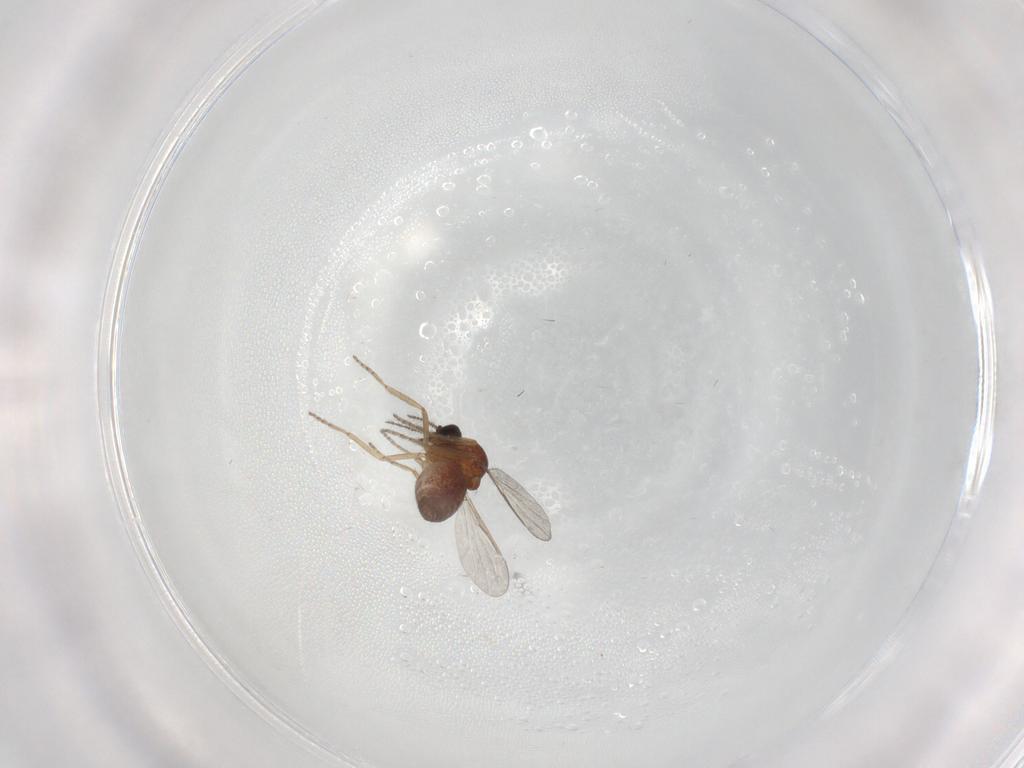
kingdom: Animalia
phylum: Arthropoda
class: Insecta
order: Diptera
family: Phoridae
